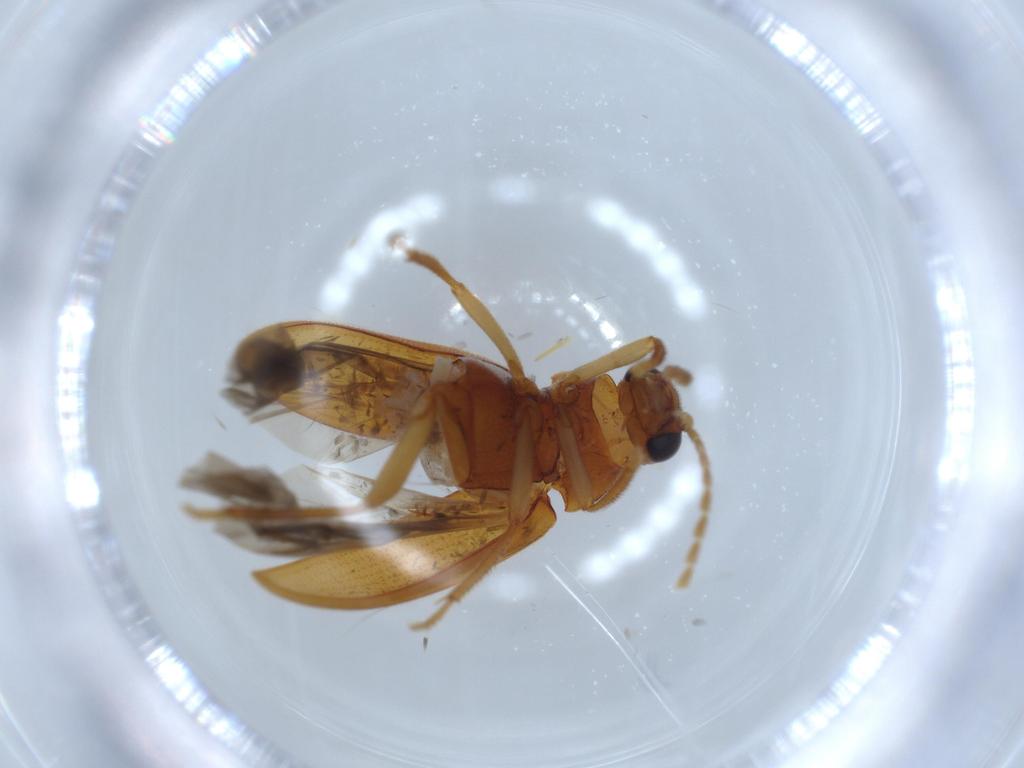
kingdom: Animalia
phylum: Arthropoda
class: Insecta
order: Coleoptera
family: Ptilodactylidae
